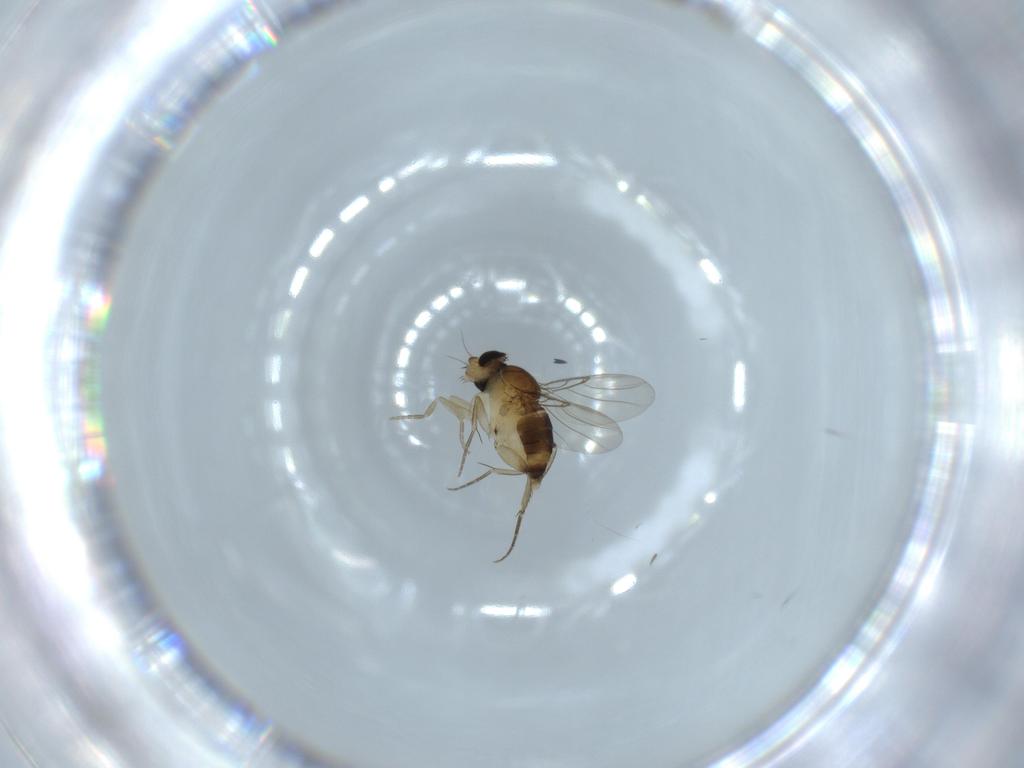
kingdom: Animalia
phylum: Arthropoda
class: Insecta
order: Diptera
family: Phoridae
